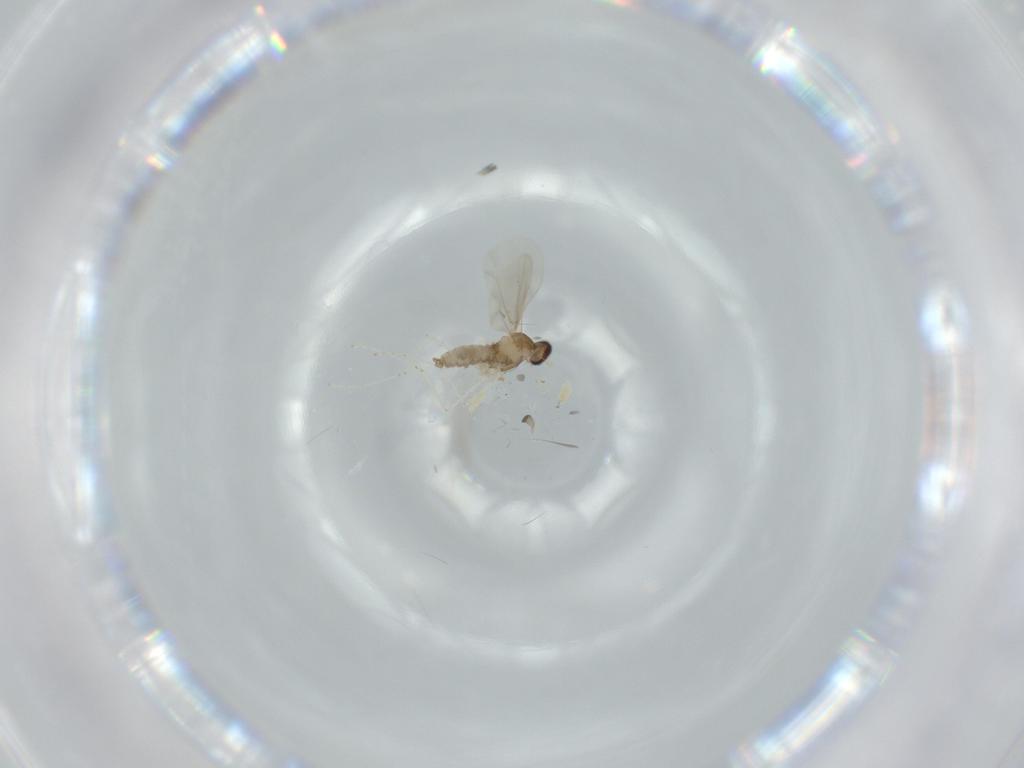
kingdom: Animalia
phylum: Arthropoda
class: Insecta
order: Diptera
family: Cecidomyiidae
